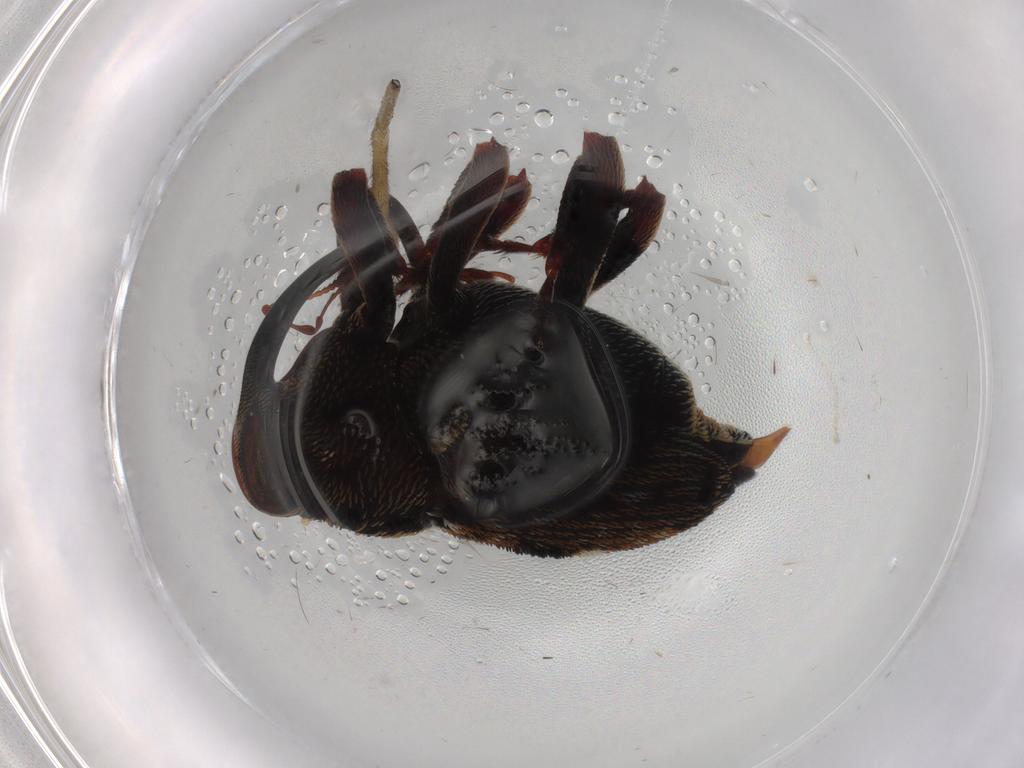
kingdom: Animalia
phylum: Arthropoda
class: Insecta
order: Coleoptera
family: Curculionidae
